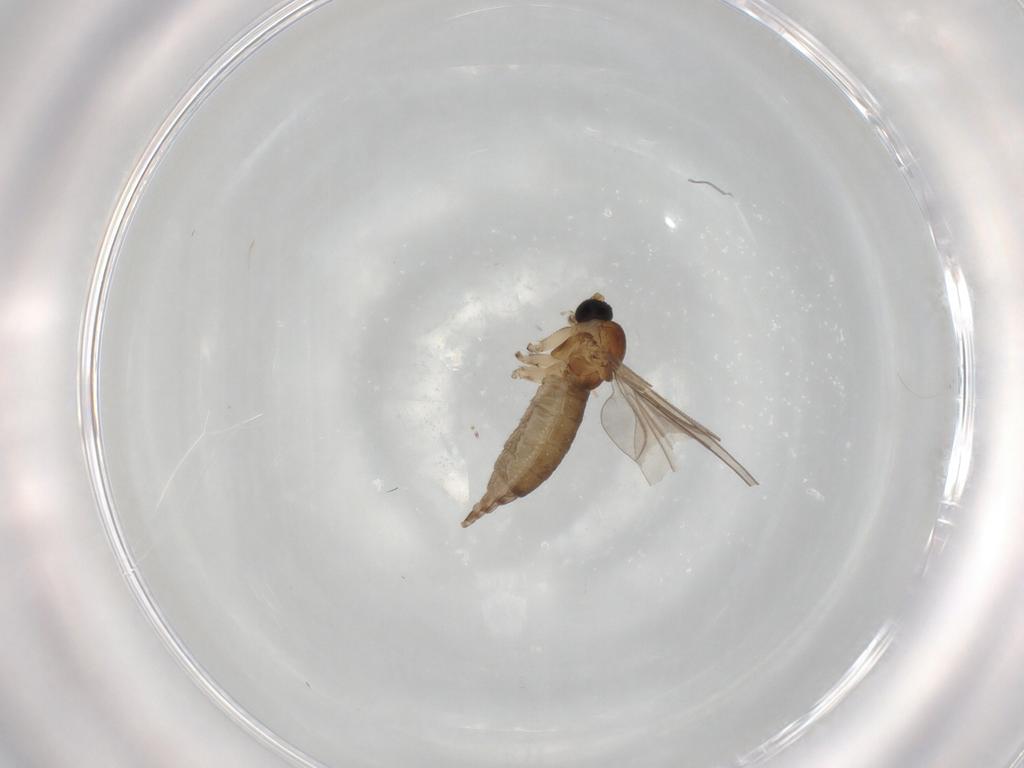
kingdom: Animalia
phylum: Arthropoda
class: Insecta
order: Diptera
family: Sciaridae
